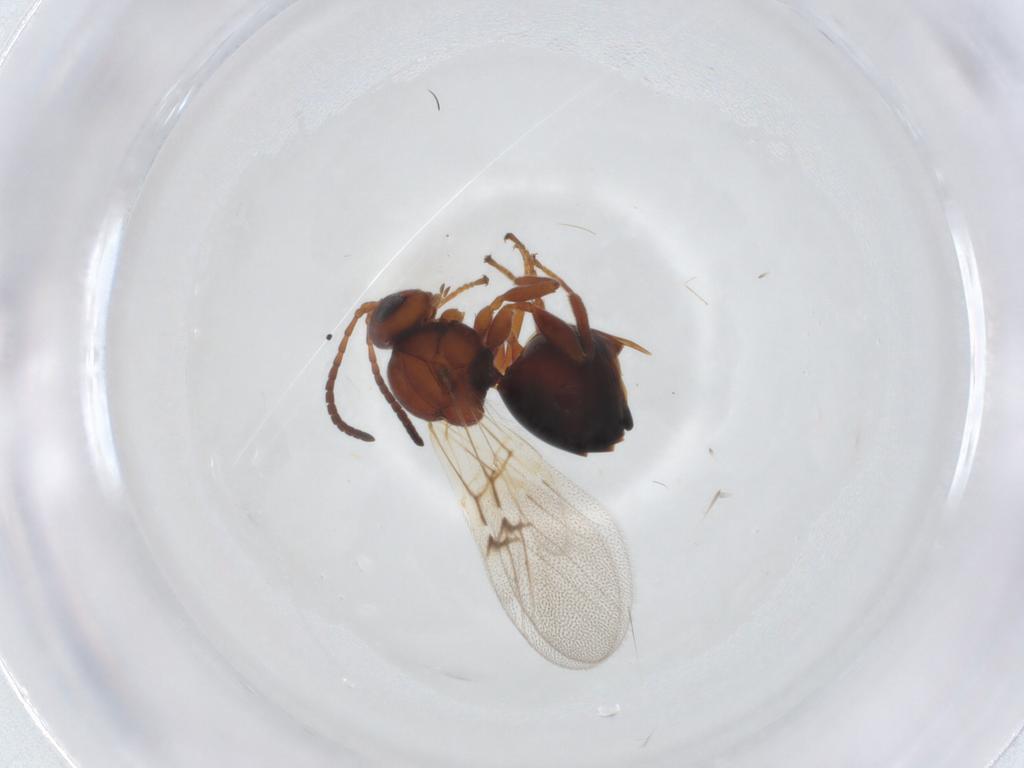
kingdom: Animalia
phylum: Arthropoda
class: Insecta
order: Hymenoptera
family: Cynipidae
